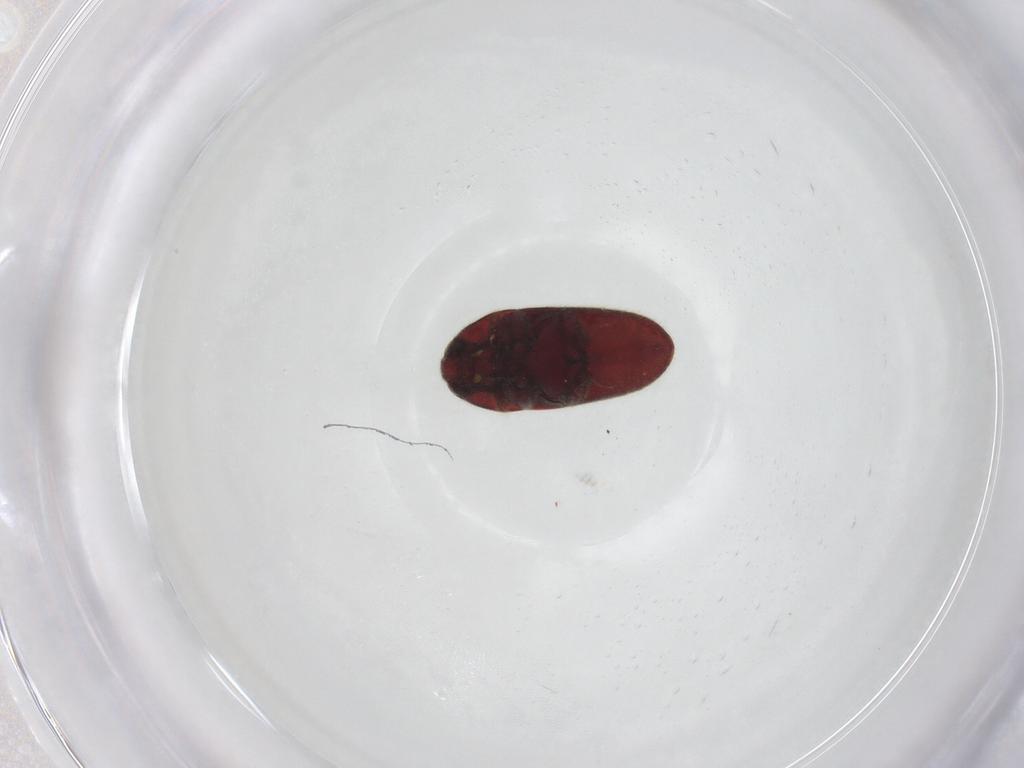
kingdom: Animalia
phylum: Arthropoda
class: Insecta
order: Coleoptera
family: Throscidae
